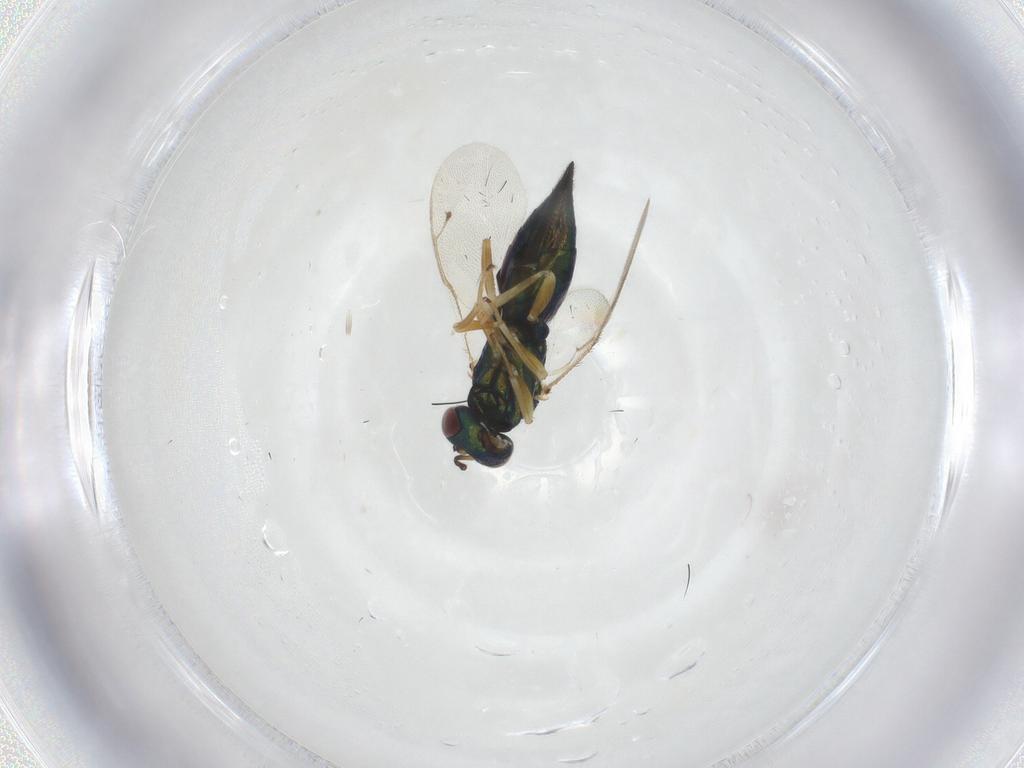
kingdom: Animalia
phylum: Arthropoda
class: Insecta
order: Hymenoptera
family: Pteromalidae
